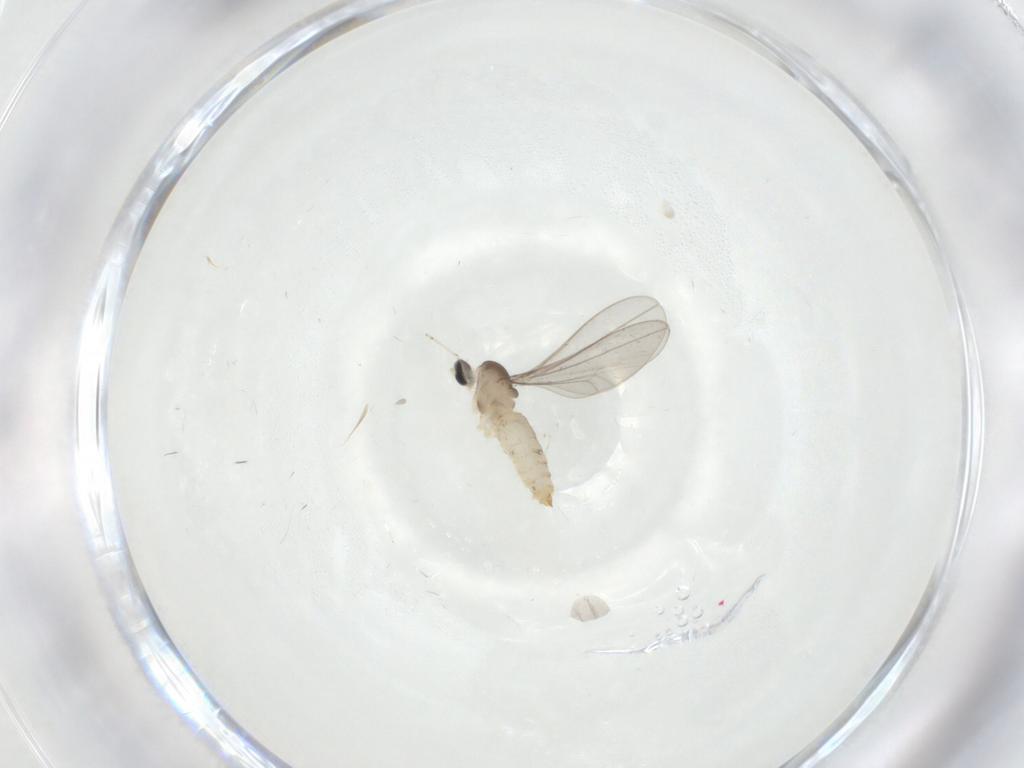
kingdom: Animalia
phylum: Arthropoda
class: Insecta
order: Diptera
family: Cecidomyiidae
